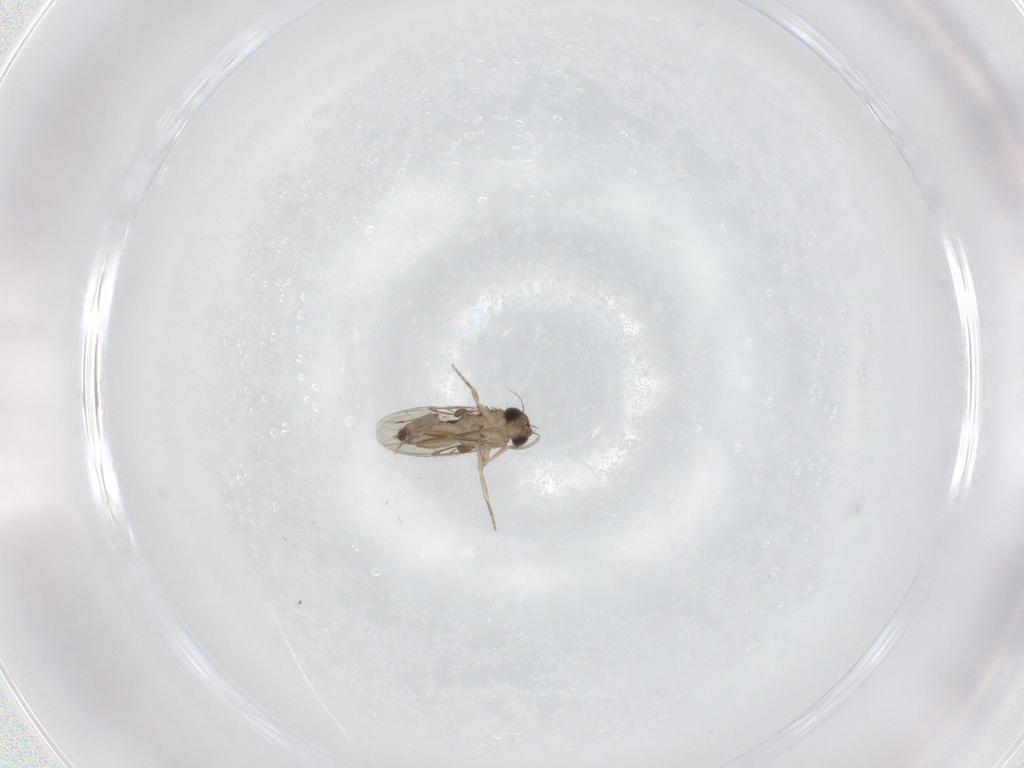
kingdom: Animalia
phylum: Arthropoda
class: Insecta
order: Diptera
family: Phoridae
